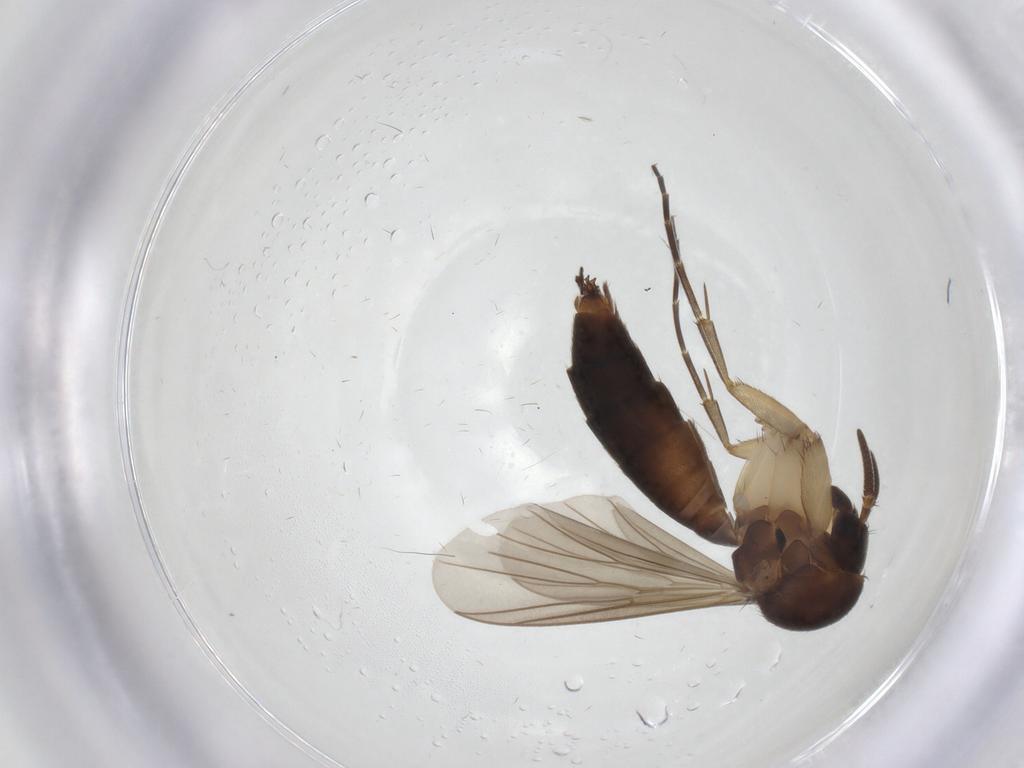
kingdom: Animalia
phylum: Arthropoda
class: Insecta
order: Diptera
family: Mycetophilidae
